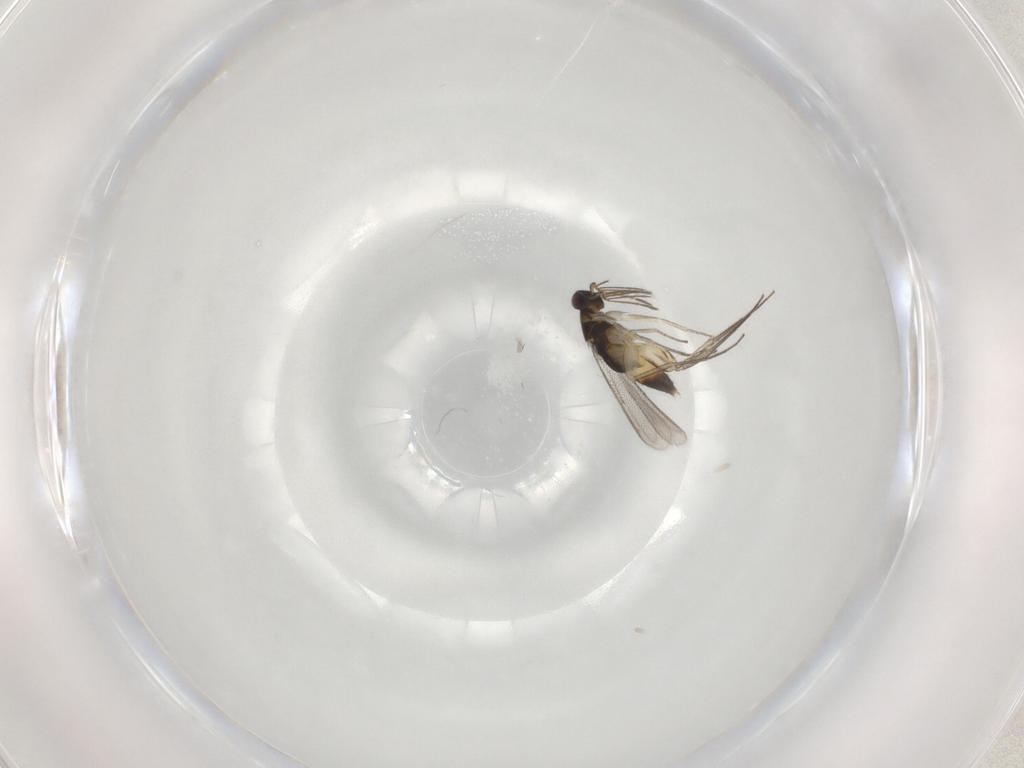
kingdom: Animalia
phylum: Arthropoda
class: Insecta
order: Hymenoptera
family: Eulophidae
